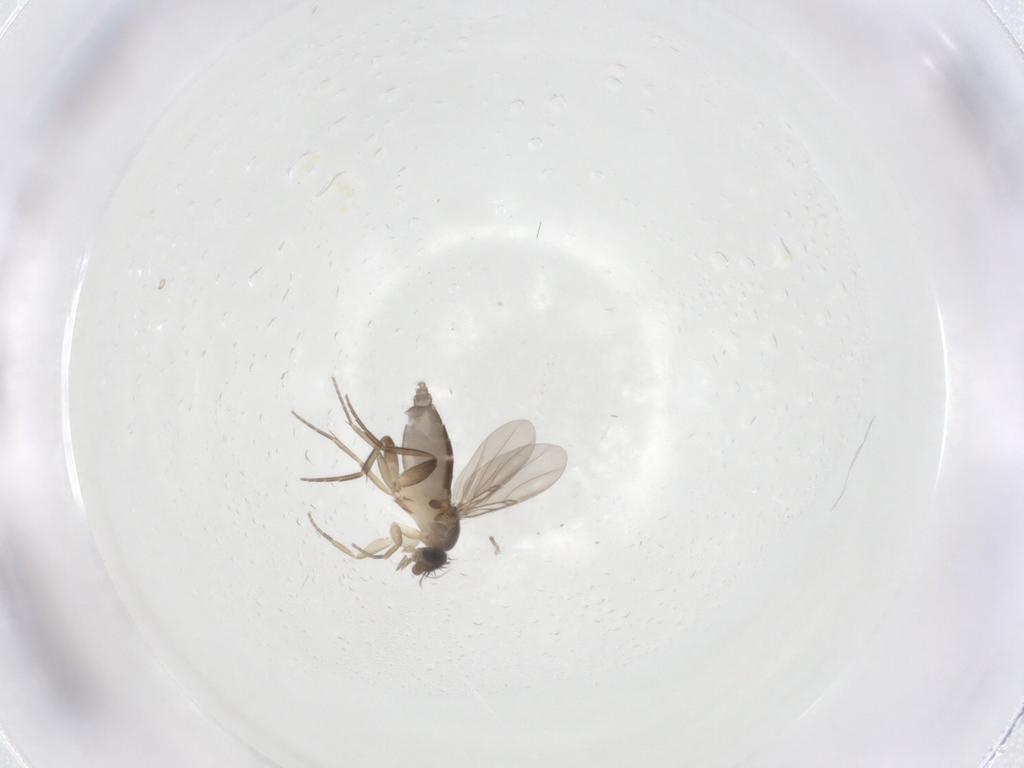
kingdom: Animalia
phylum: Arthropoda
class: Insecta
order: Diptera
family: Phoridae
